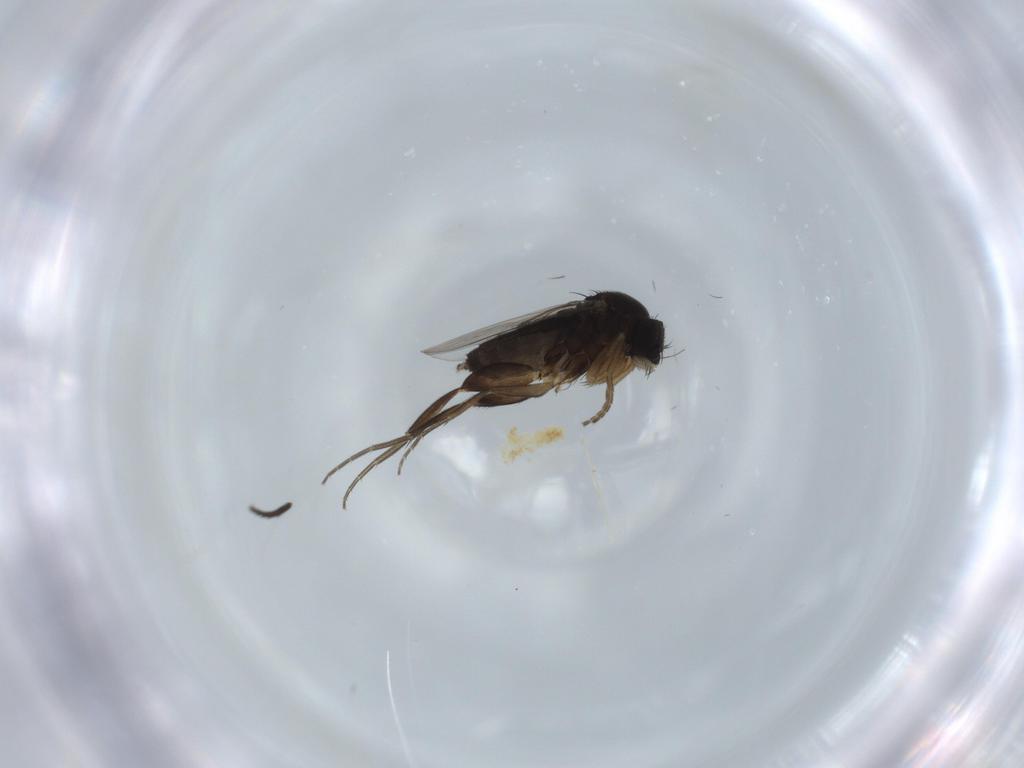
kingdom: Animalia
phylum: Arthropoda
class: Insecta
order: Diptera
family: Phoridae
